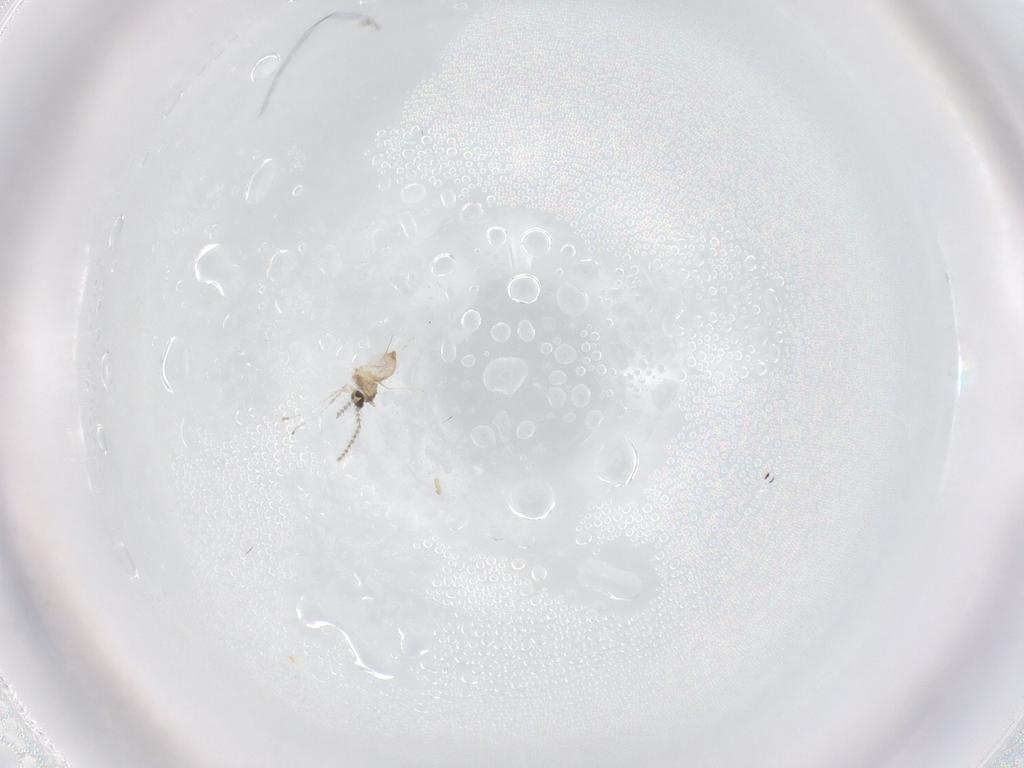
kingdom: Animalia
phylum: Arthropoda
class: Insecta
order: Diptera
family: Cecidomyiidae
